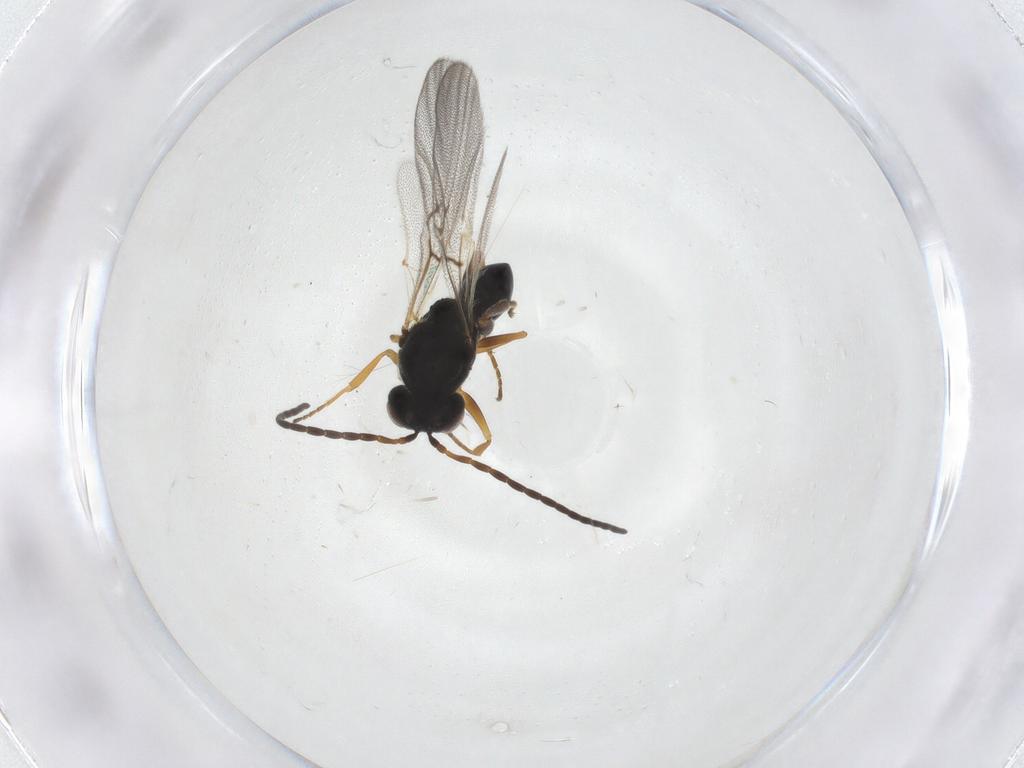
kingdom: Animalia
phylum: Arthropoda
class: Insecta
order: Hymenoptera
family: Cynipidae
